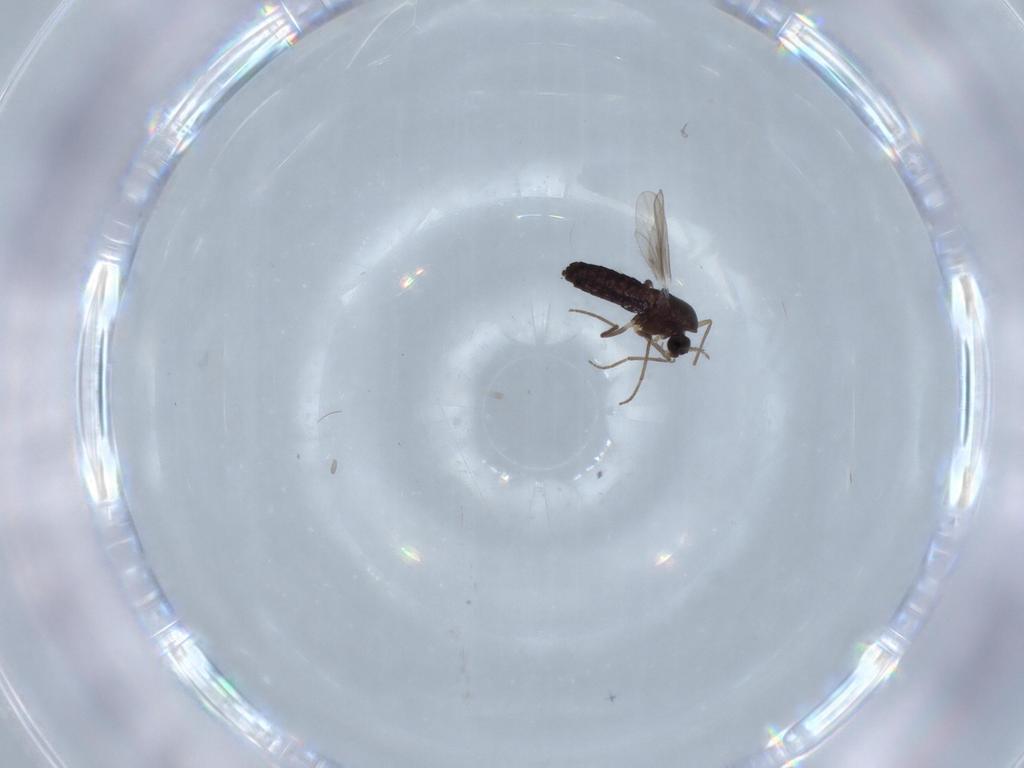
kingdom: Animalia
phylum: Arthropoda
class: Insecta
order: Diptera
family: Chironomidae
